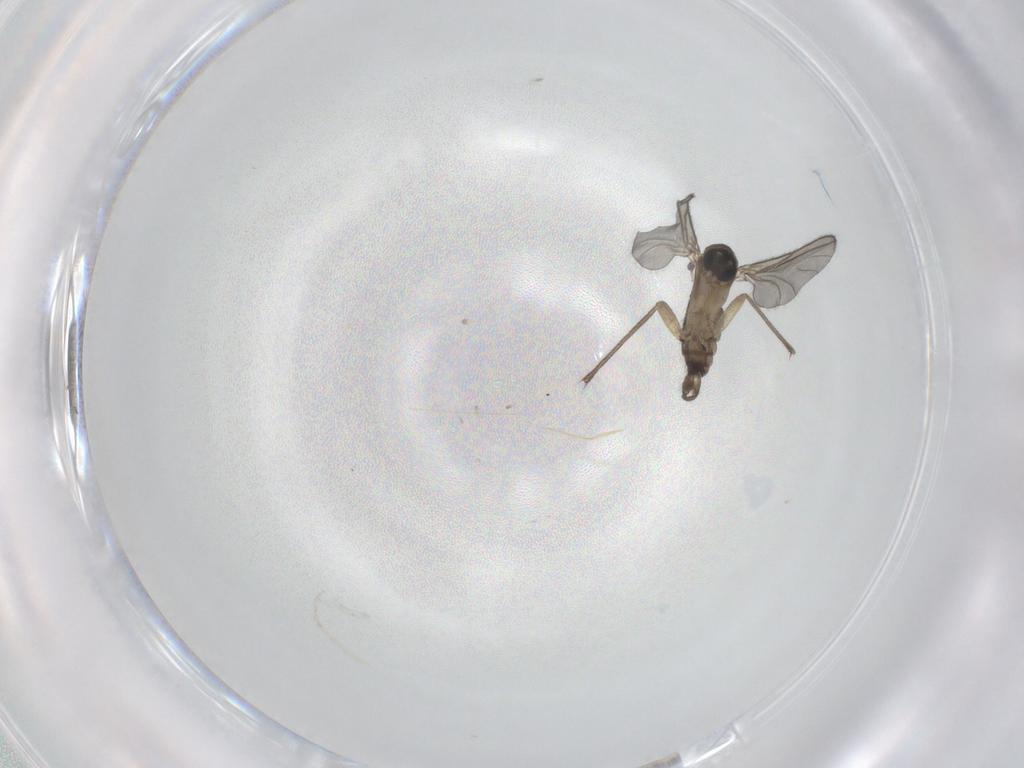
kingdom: Animalia
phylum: Arthropoda
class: Insecta
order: Diptera
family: Sciaridae
